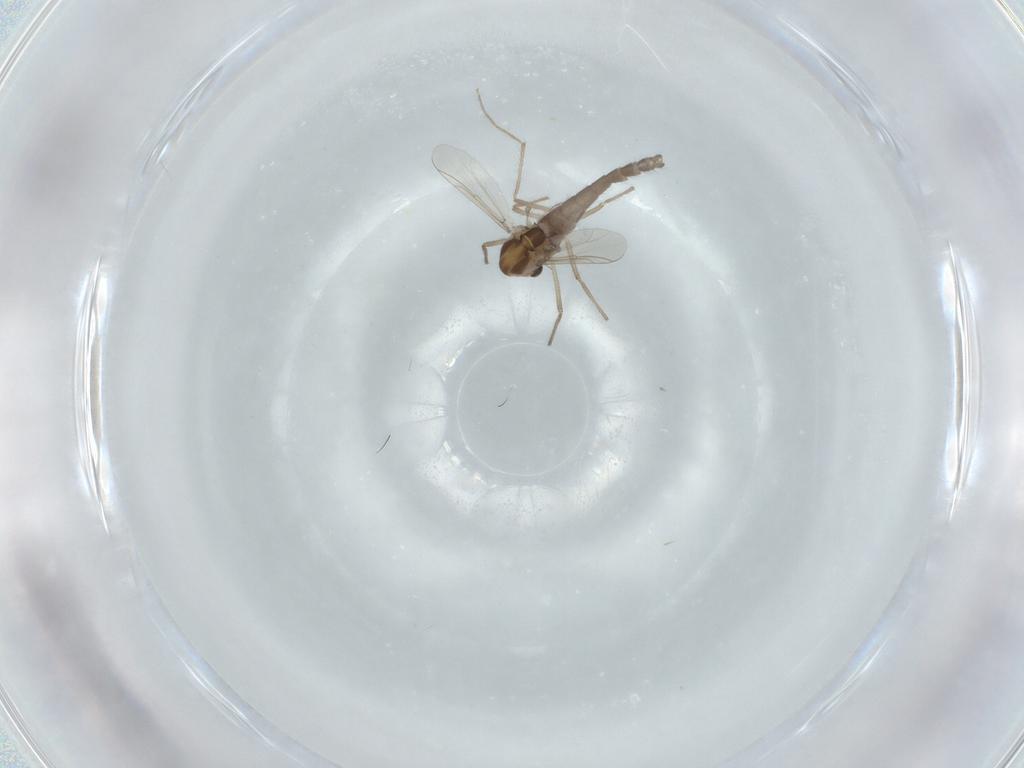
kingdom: Animalia
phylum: Arthropoda
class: Insecta
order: Diptera
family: Chironomidae
